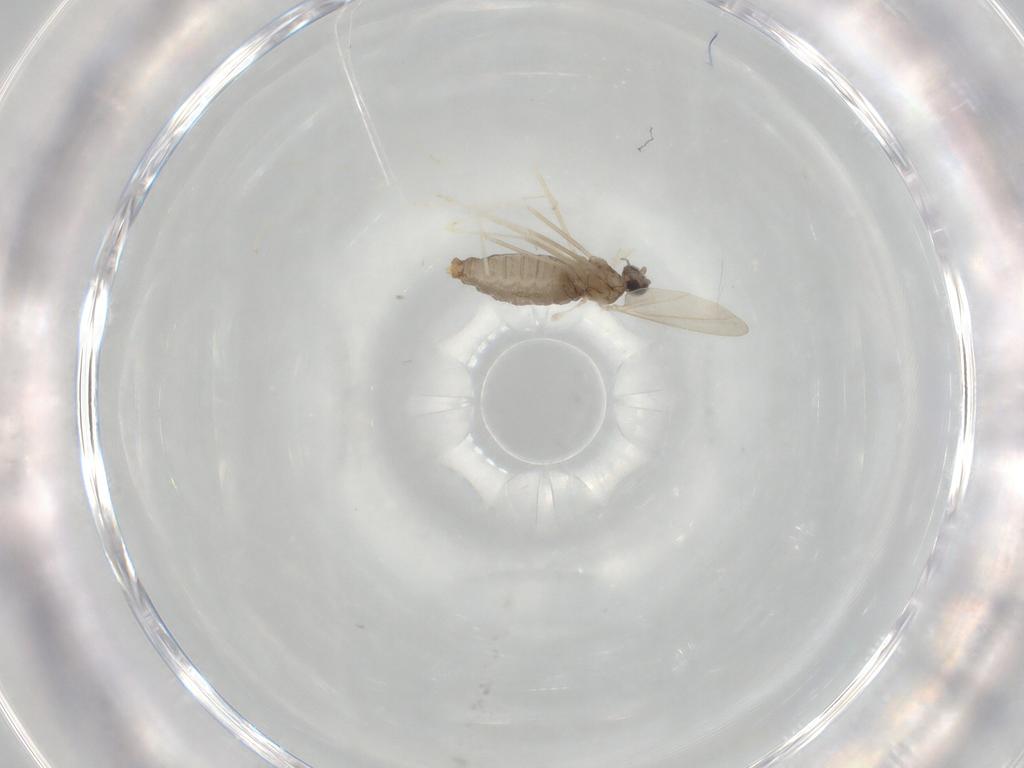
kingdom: Animalia
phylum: Arthropoda
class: Insecta
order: Diptera
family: Cecidomyiidae
